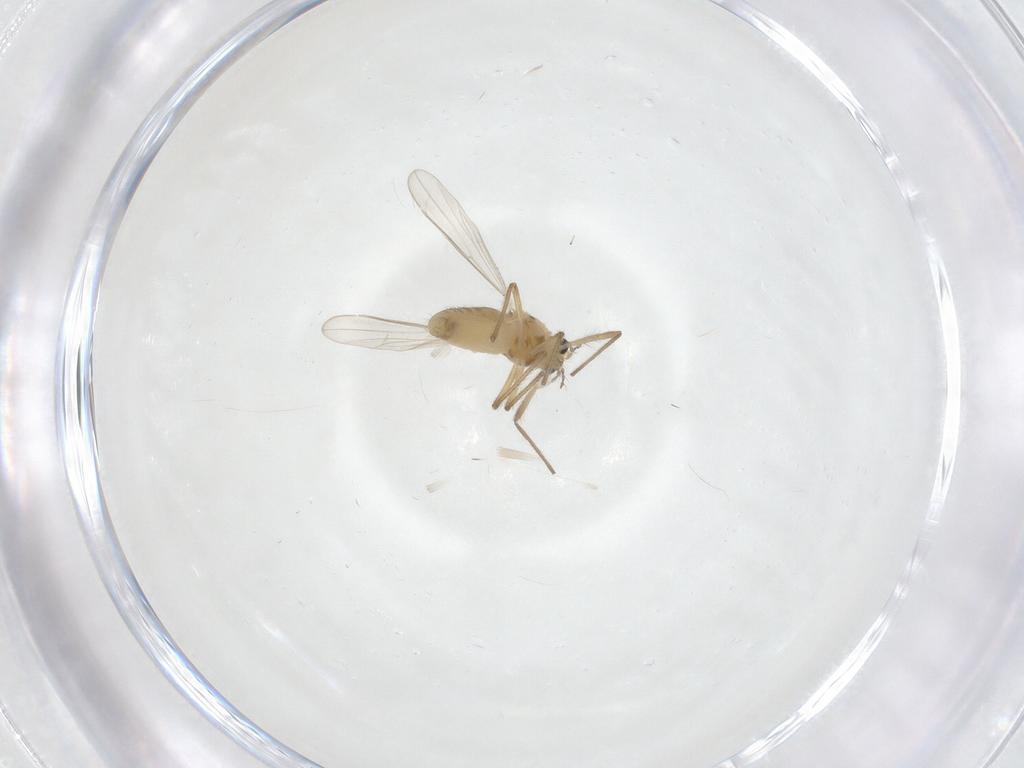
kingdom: Animalia
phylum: Arthropoda
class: Insecta
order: Diptera
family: Chironomidae
